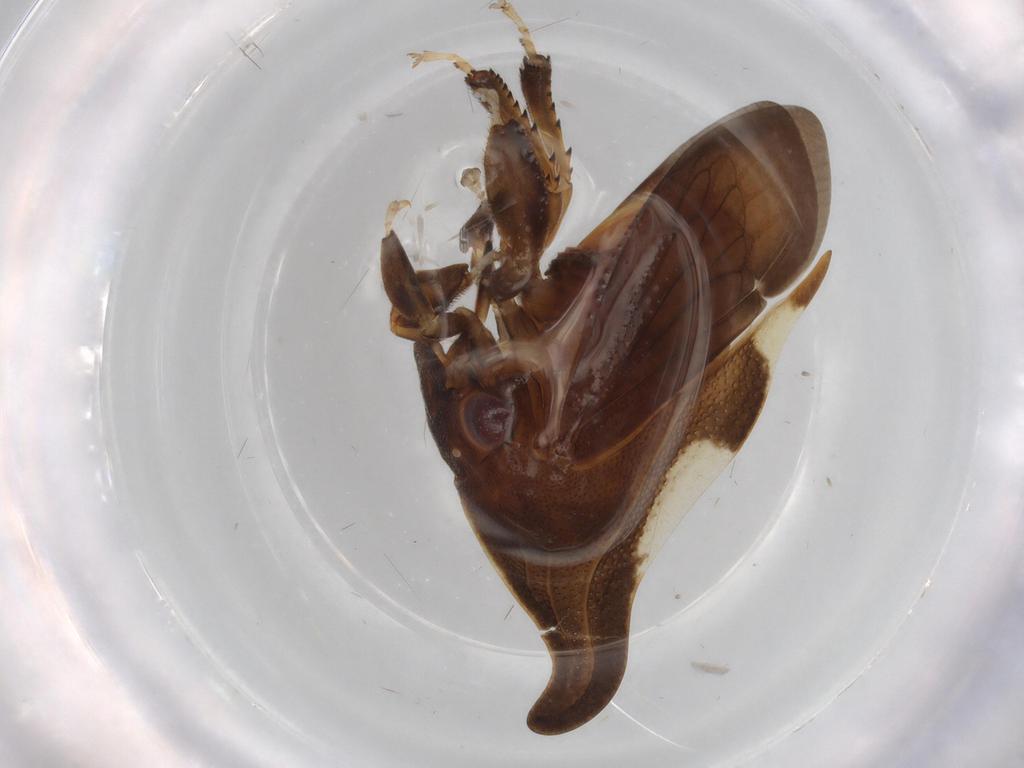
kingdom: Animalia
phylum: Arthropoda
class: Insecta
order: Hemiptera
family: Membracidae
